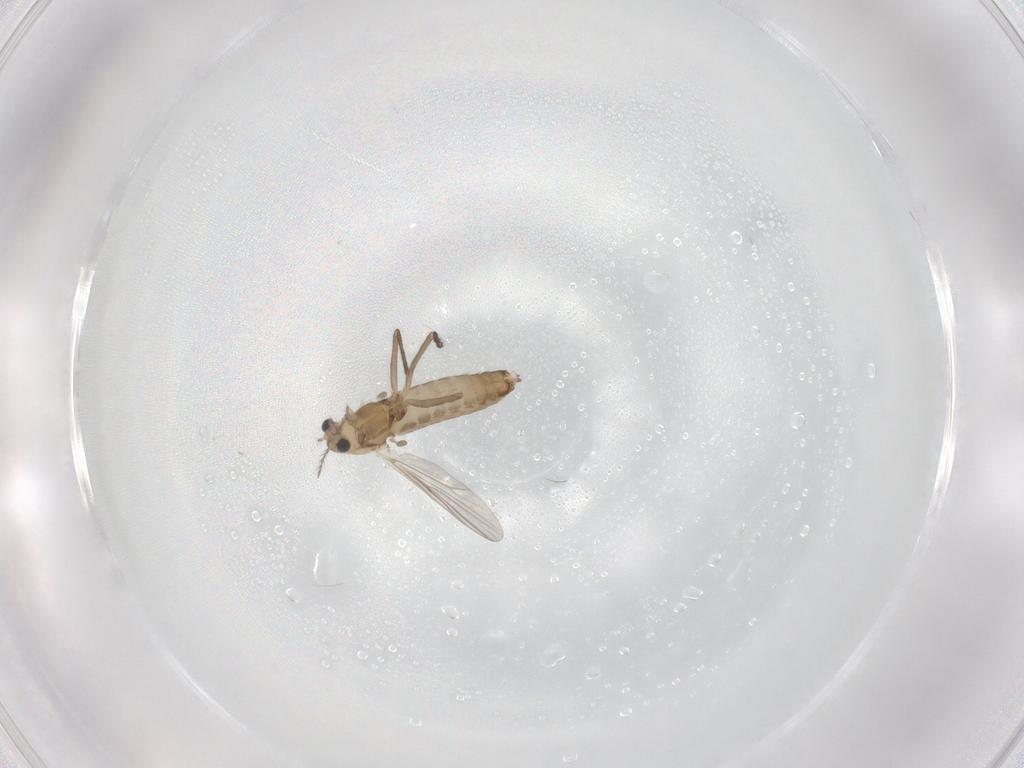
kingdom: Animalia
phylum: Arthropoda
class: Insecta
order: Diptera
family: Chironomidae
